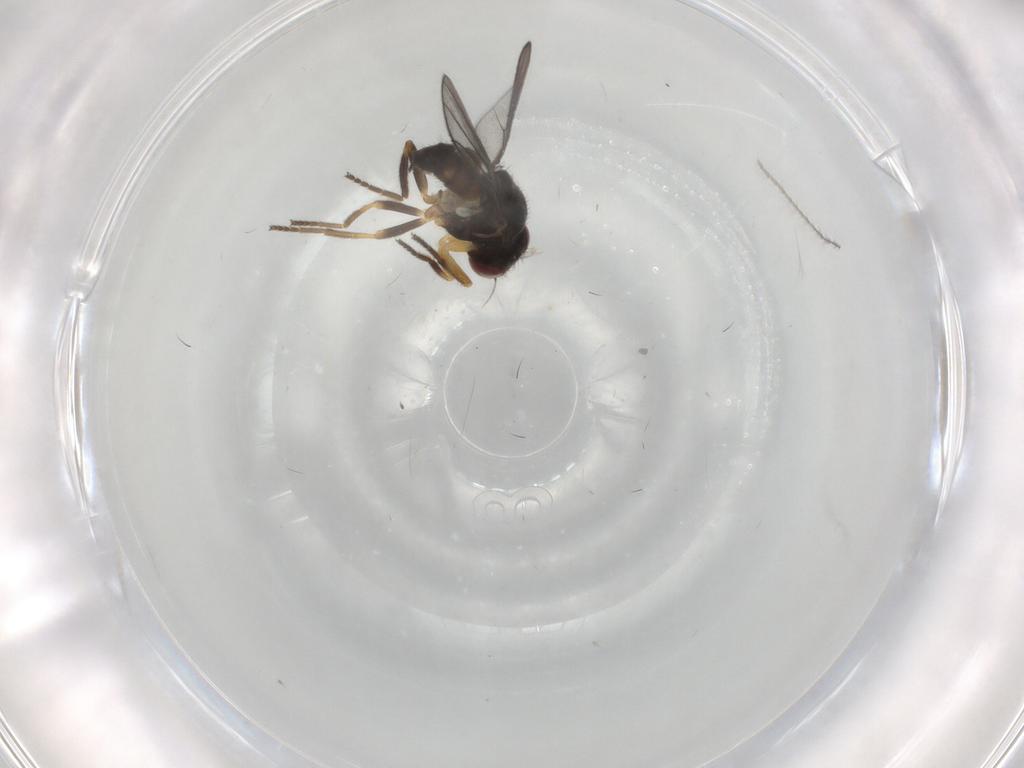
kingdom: Animalia
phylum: Arthropoda
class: Insecta
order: Diptera
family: Chloropidae
